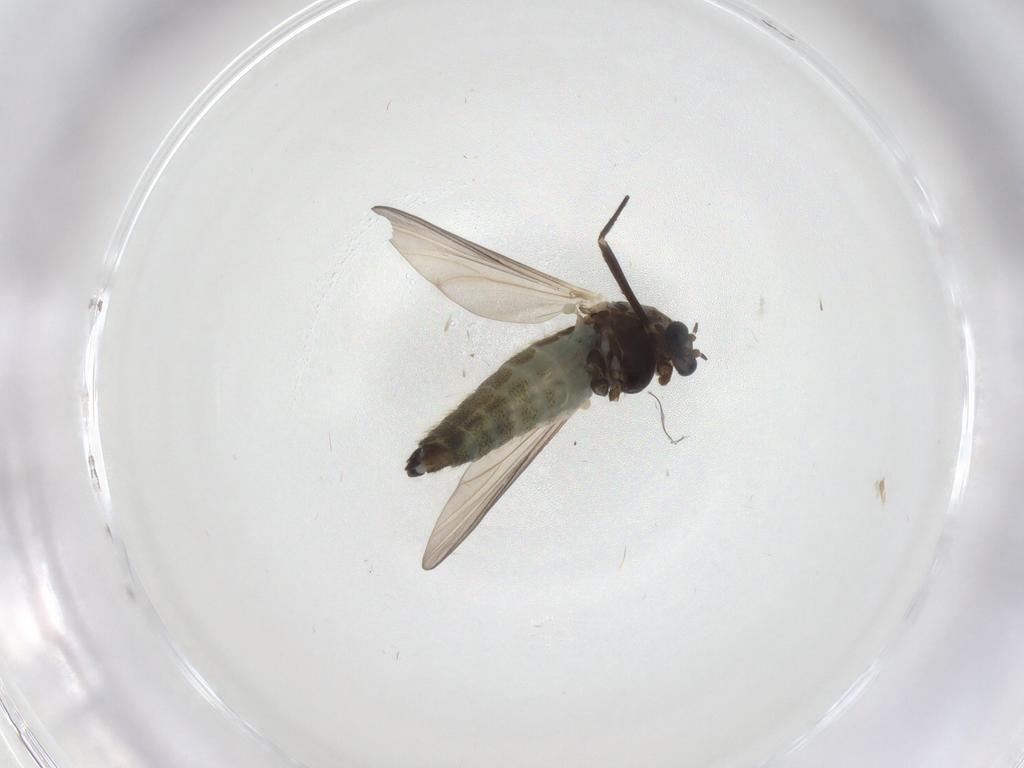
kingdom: Animalia
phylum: Arthropoda
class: Insecta
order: Diptera
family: Chironomidae
